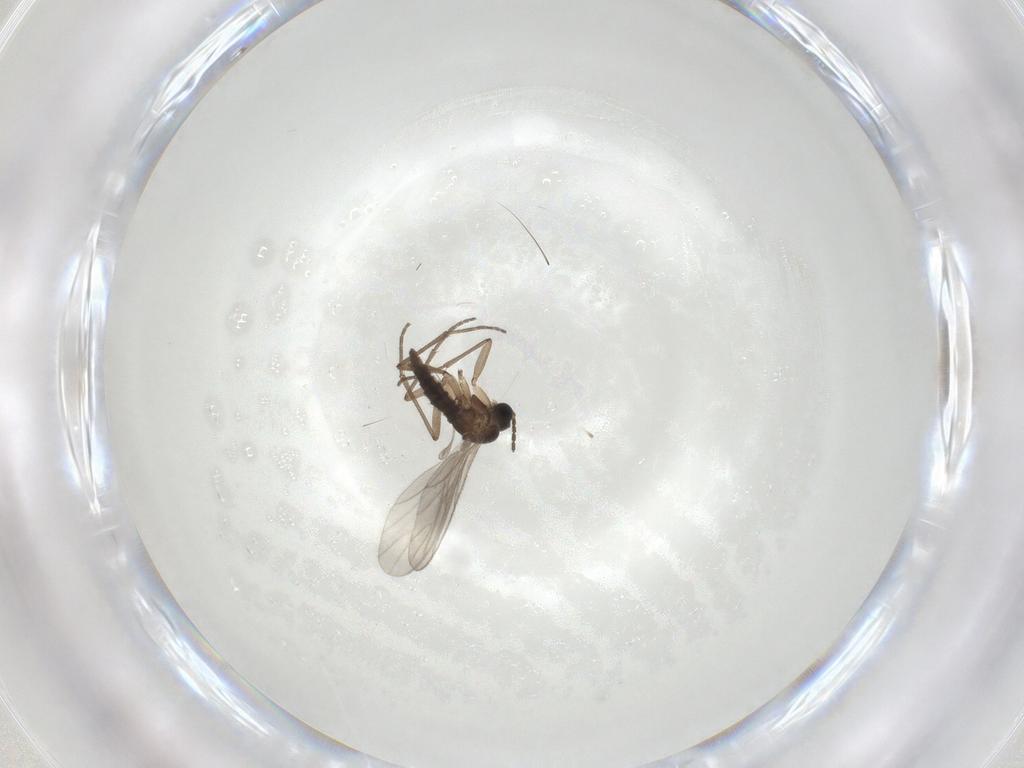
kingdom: Animalia
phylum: Arthropoda
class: Insecta
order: Diptera
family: Sciaridae
